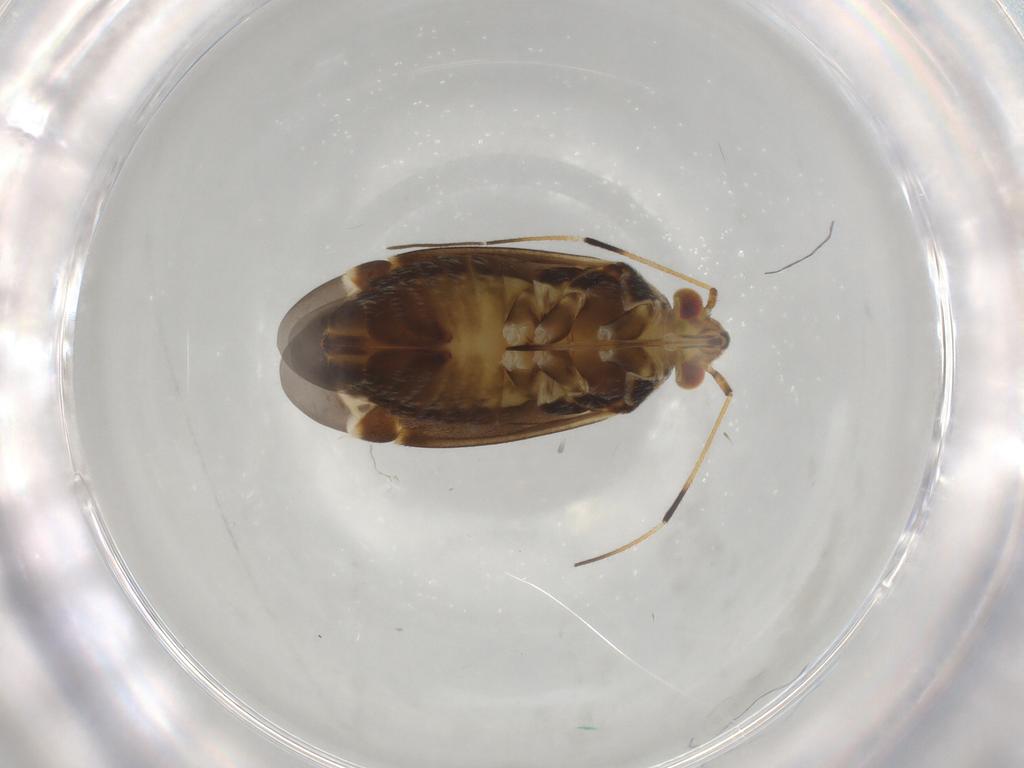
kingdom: Animalia
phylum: Arthropoda
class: Insecta
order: Hemiptera
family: Miridae
